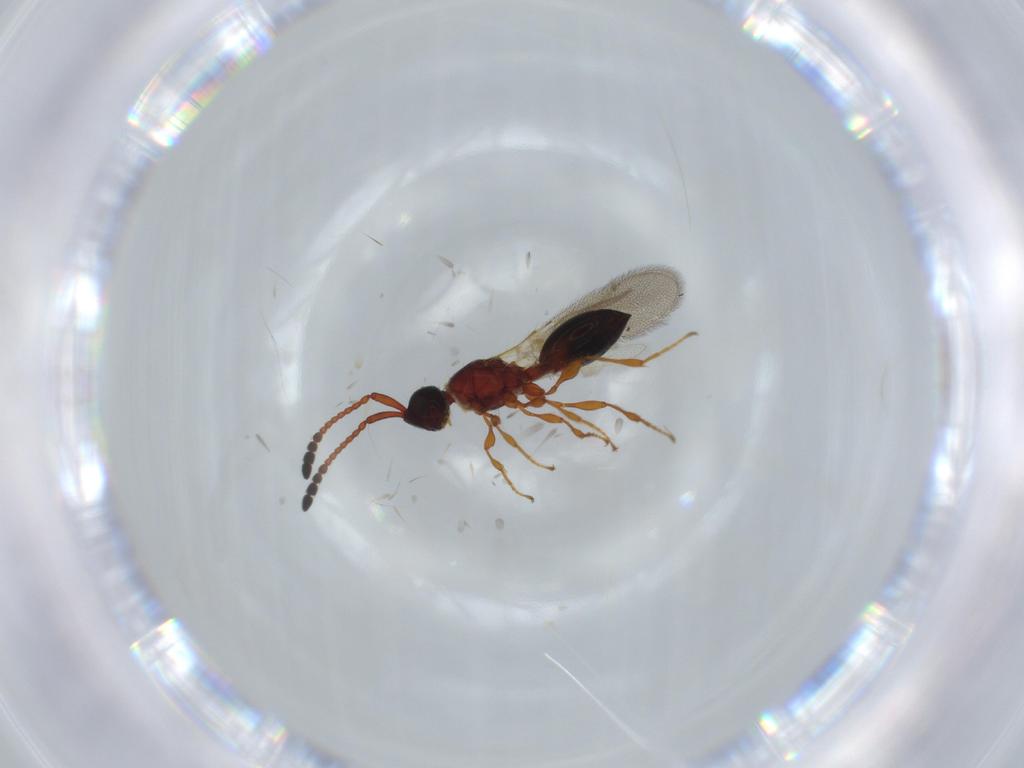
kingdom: Animalia
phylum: Arthropoda
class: Insecta
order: Hymenoptera
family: Diapriidae
